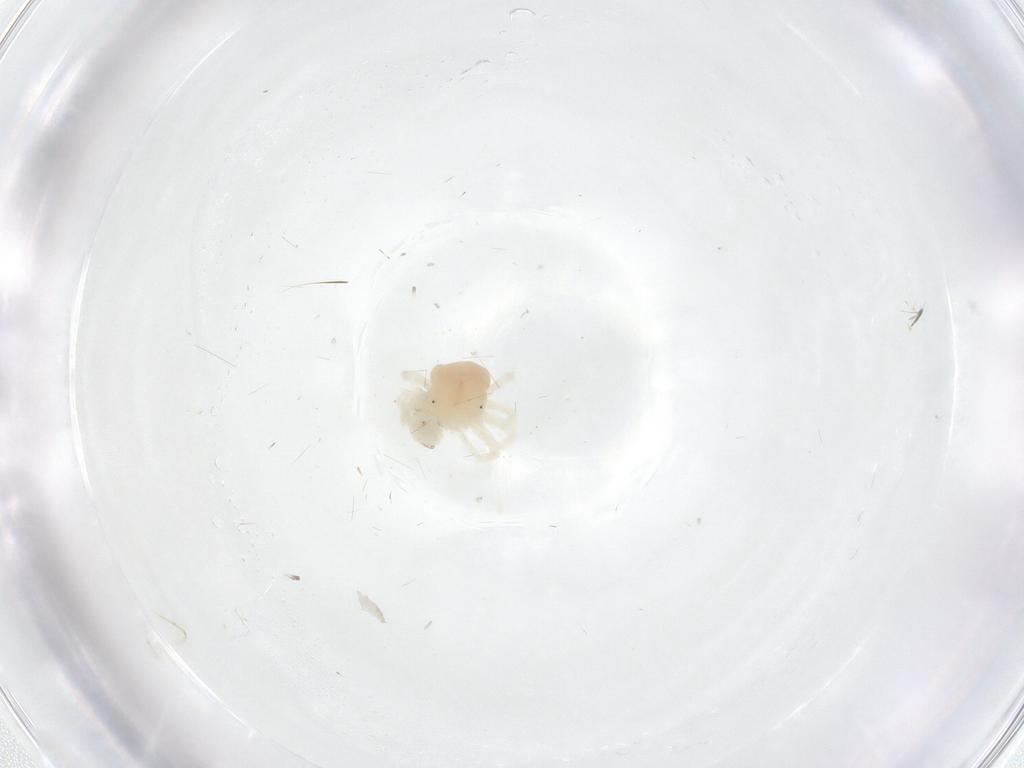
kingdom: Animalia
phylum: Arthropoda
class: Arachnida
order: Trombidiformes
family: Anystidae
